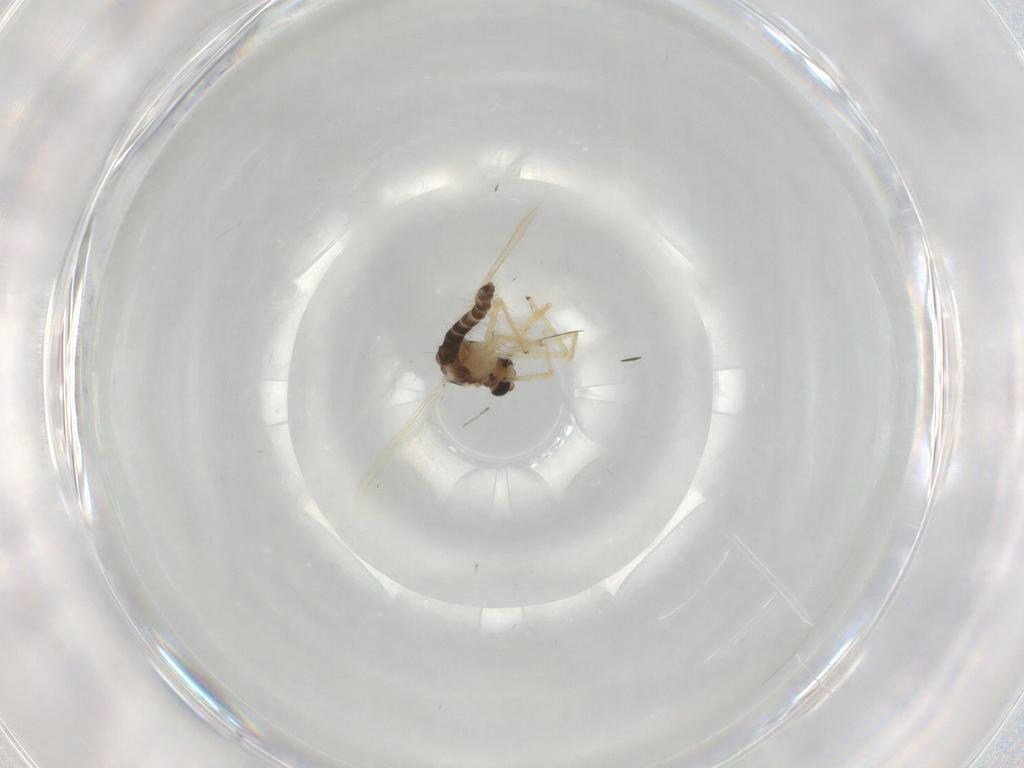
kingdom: Animalia
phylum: Arthropoda
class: Insecta
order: Diptera
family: Chironomidae
